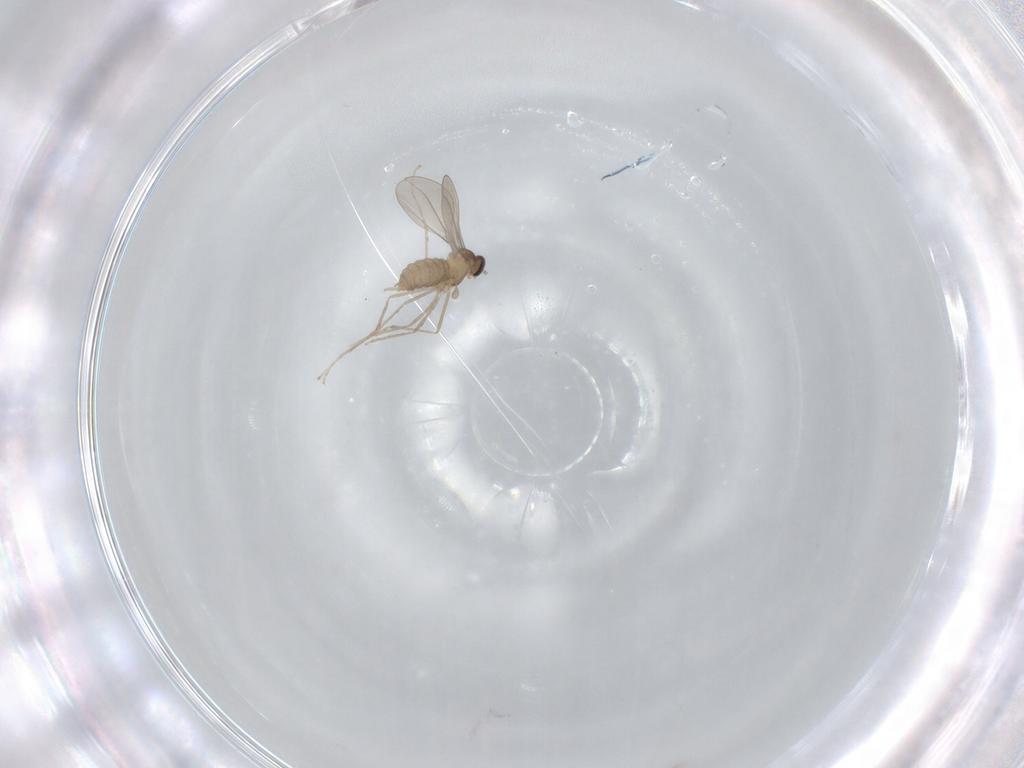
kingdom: Animalia
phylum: Arthropoda
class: Insecta
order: Diptera
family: Cecidomyiidae
